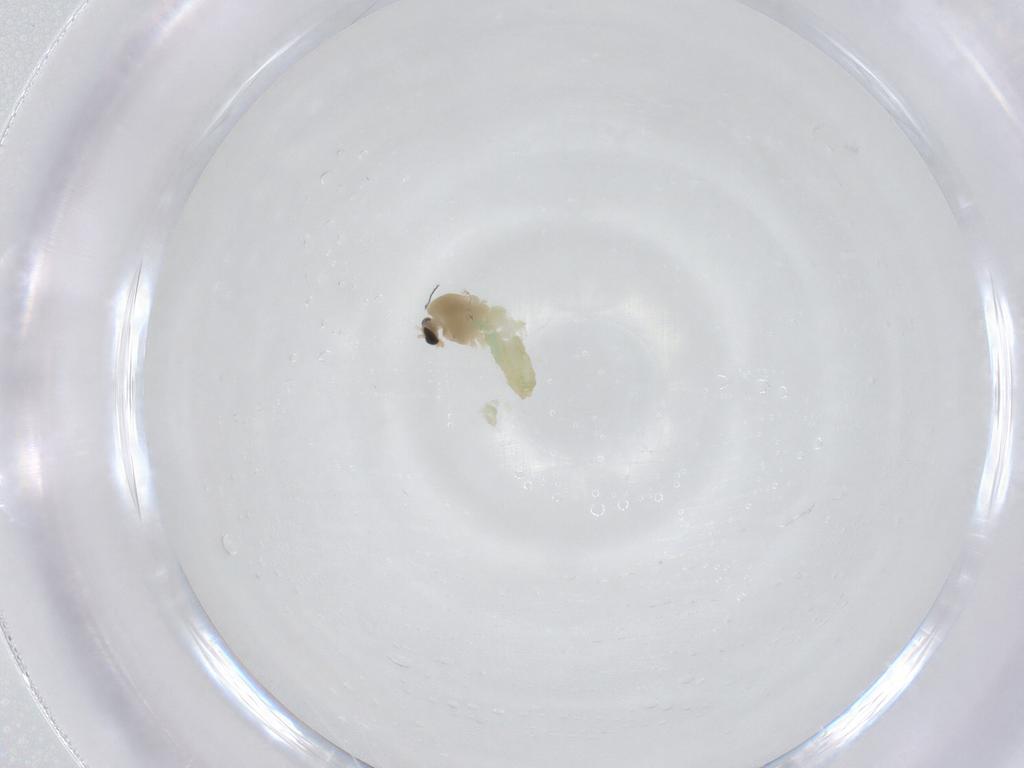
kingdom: Animalia
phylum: Arthropoda
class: Insecta
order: Diptera
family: Chironomidae
